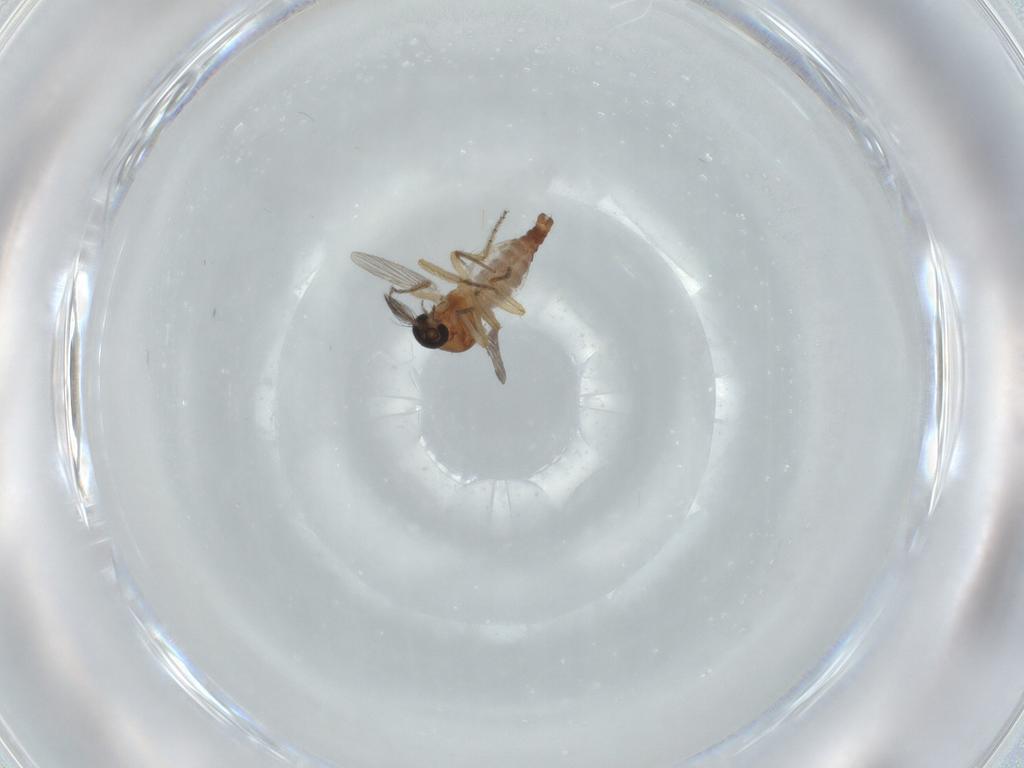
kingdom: Animalia
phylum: Arthropoda
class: Insecta
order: Diptera
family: Ceratopogonidae
